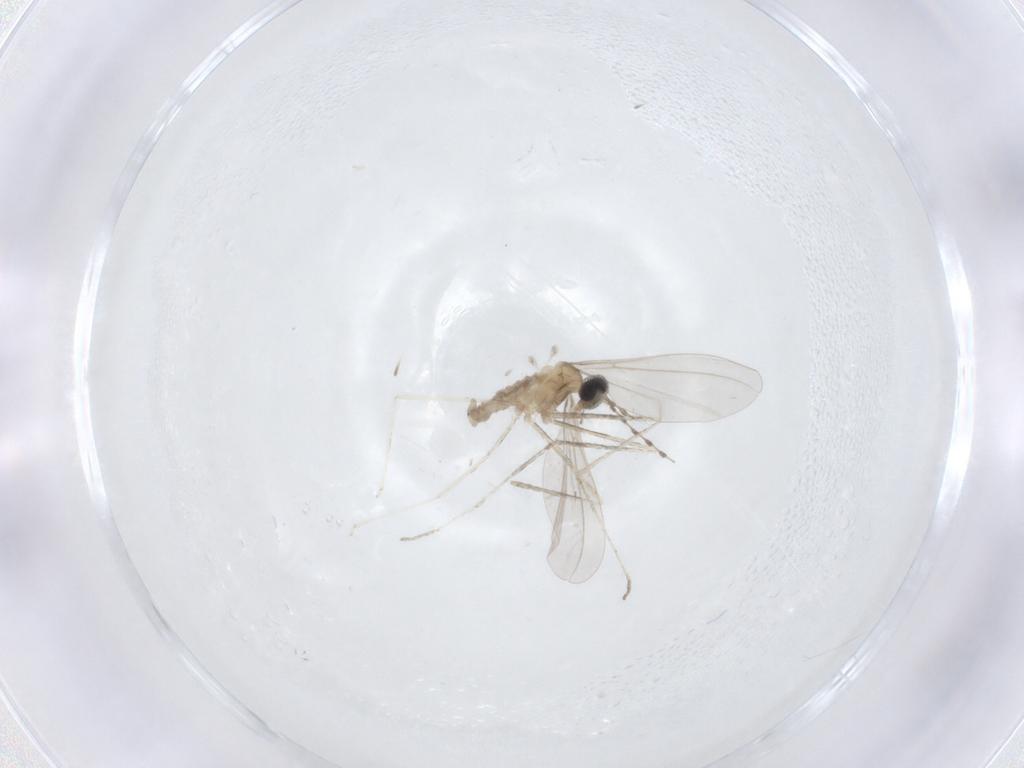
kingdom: Animalia
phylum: Arthropoda
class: Insecta
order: Diptera
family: Cecidomyiidae
